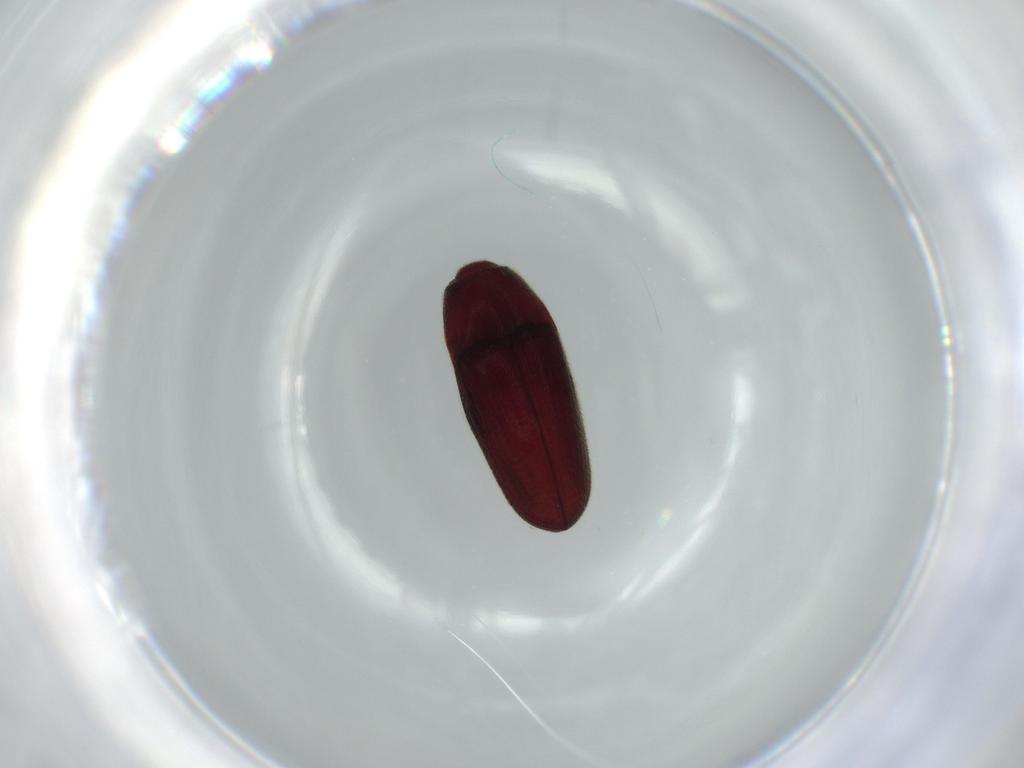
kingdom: Animalia
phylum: Arthropoda
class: Insecta
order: Coleoptera
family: Throscidae
